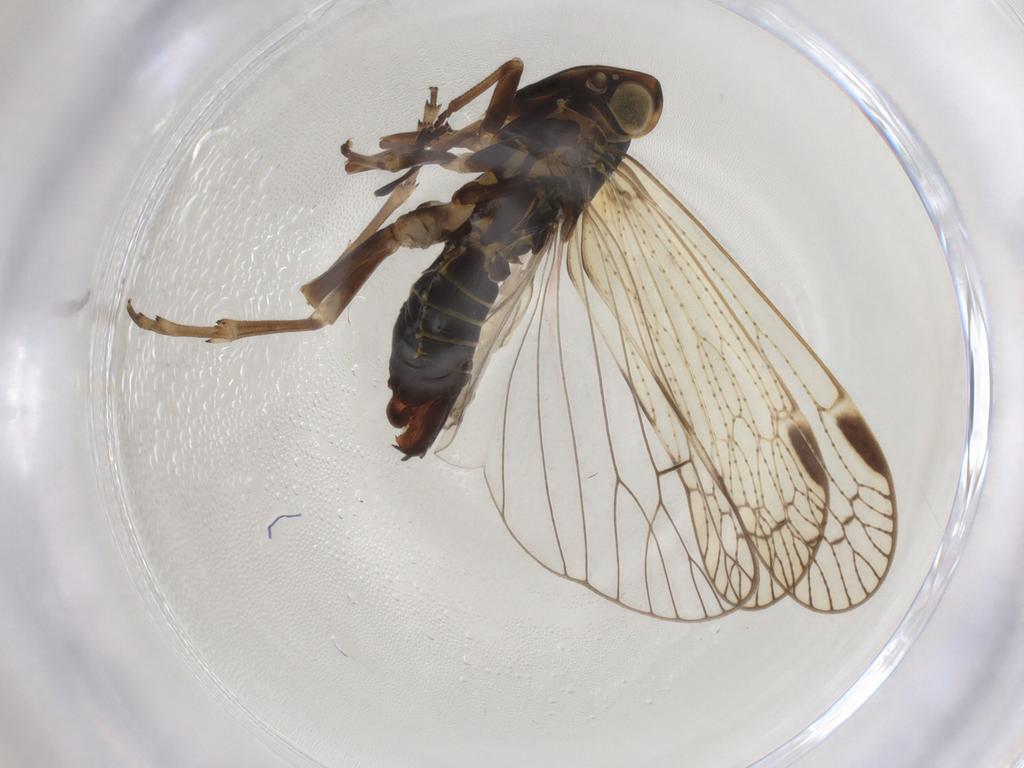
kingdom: Animalia
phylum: Arthropoda
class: Insecta
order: Hemiptera
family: Cixiidae
